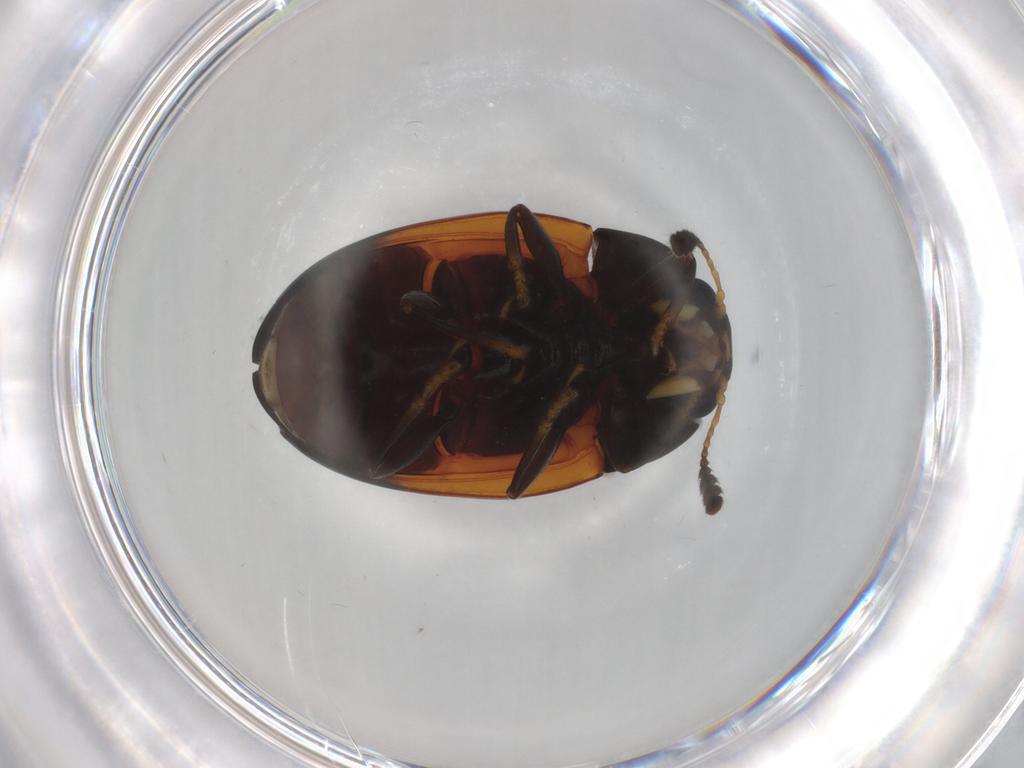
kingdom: Animalia
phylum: Arthropoda
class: Insecta
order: Coleoptera
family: Erotylidae
